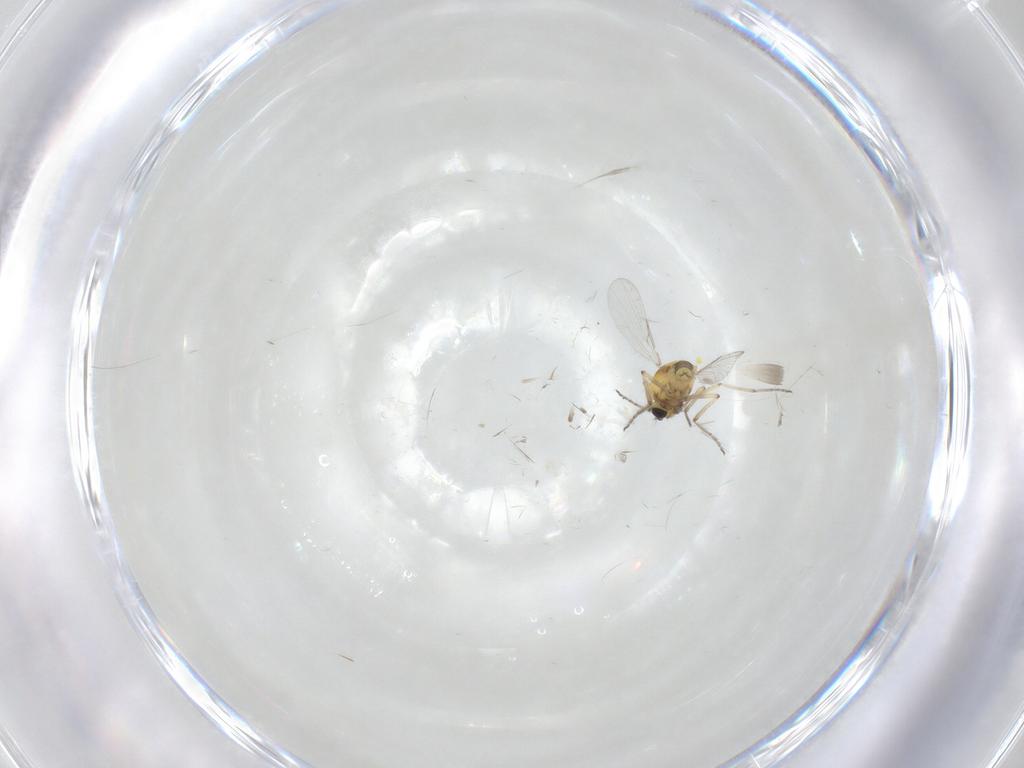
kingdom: Animalia
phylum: Arthropoda
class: Insecta
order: Diptera
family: Ceratopogonidae
